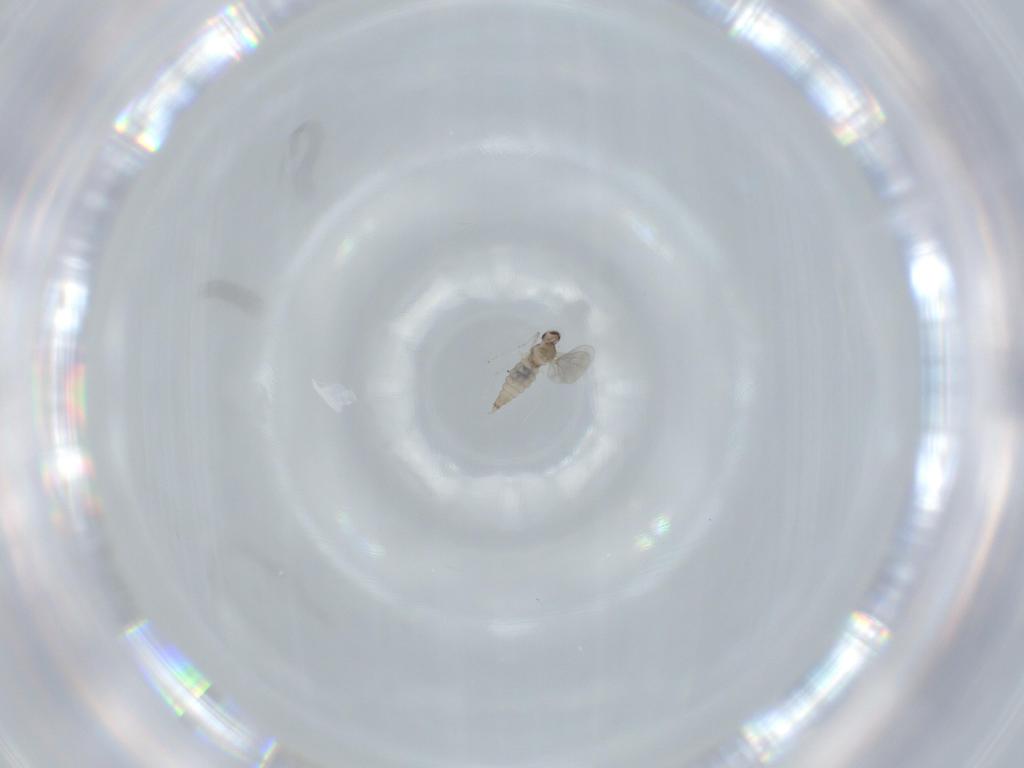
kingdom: Animalia
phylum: Arthropoda
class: Insecta
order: Diptera
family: Cecidomyiidae
